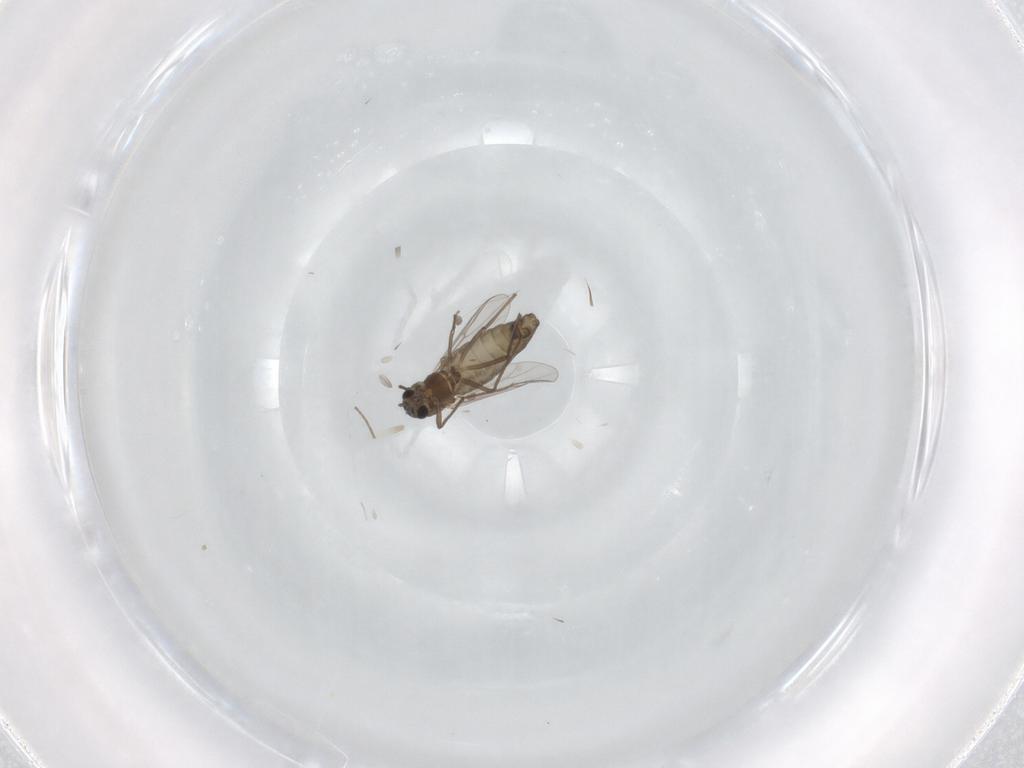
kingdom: Animalia
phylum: Arthropoda
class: Insecta
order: Diptera
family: Chironomidae
